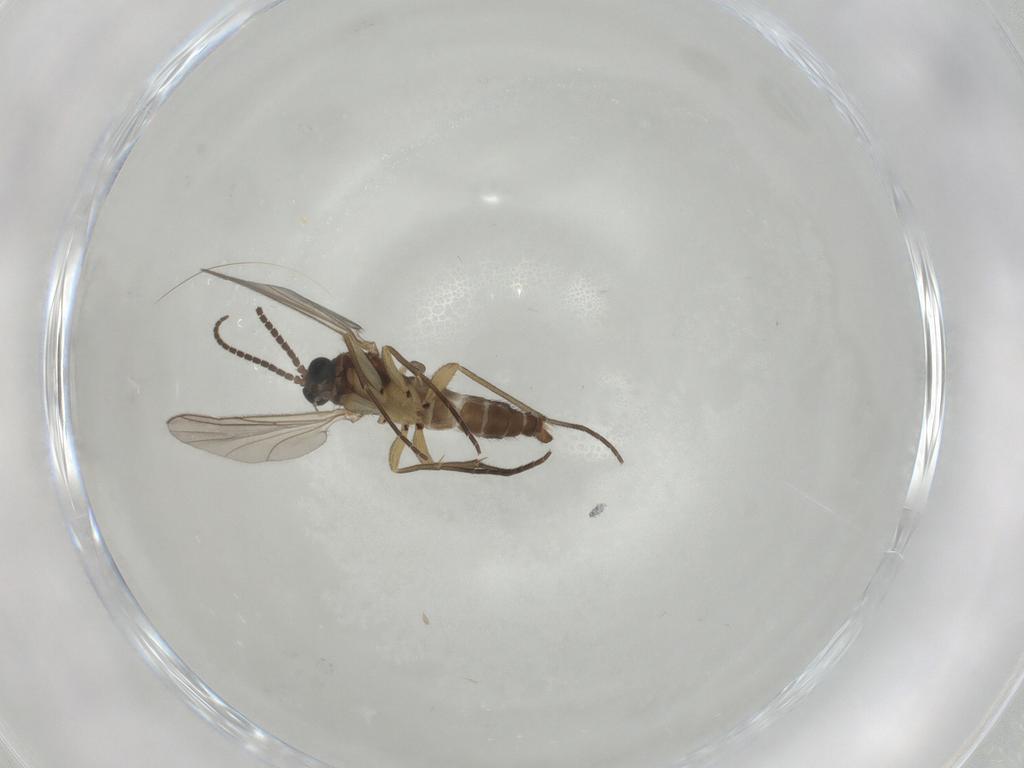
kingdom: Animalia
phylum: Arthropoda
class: Insecta
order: Diptera
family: Sciaridae
